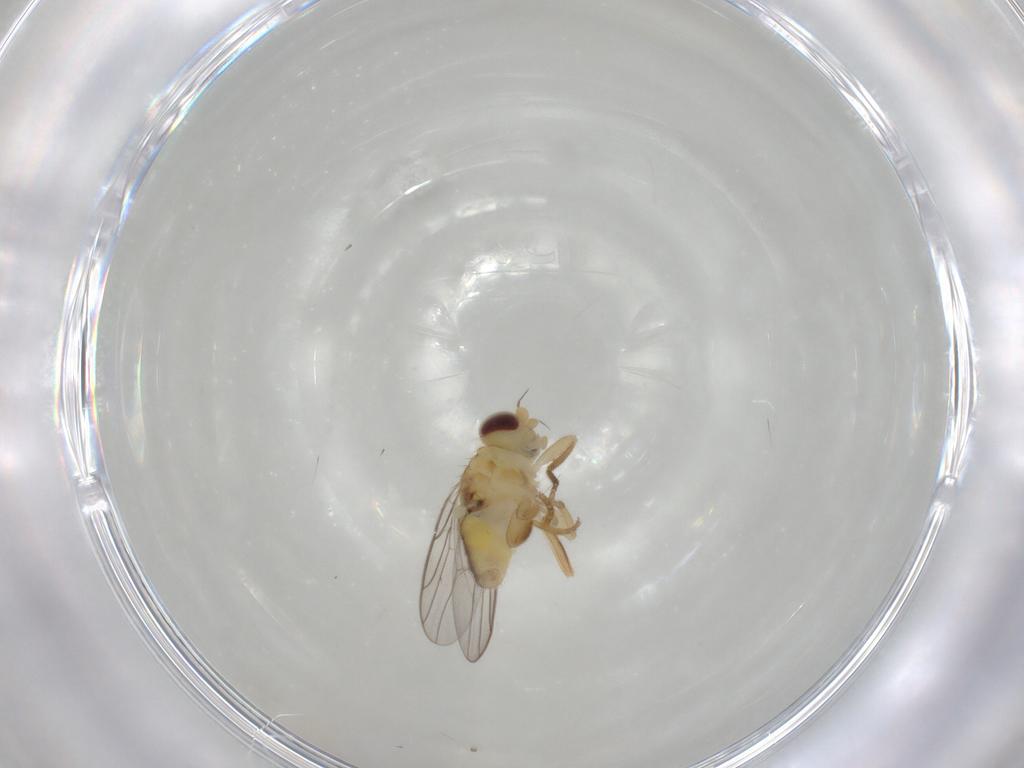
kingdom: Animalia
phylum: Arthropoda
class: Insecta
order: Diptera
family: Chloropidae
